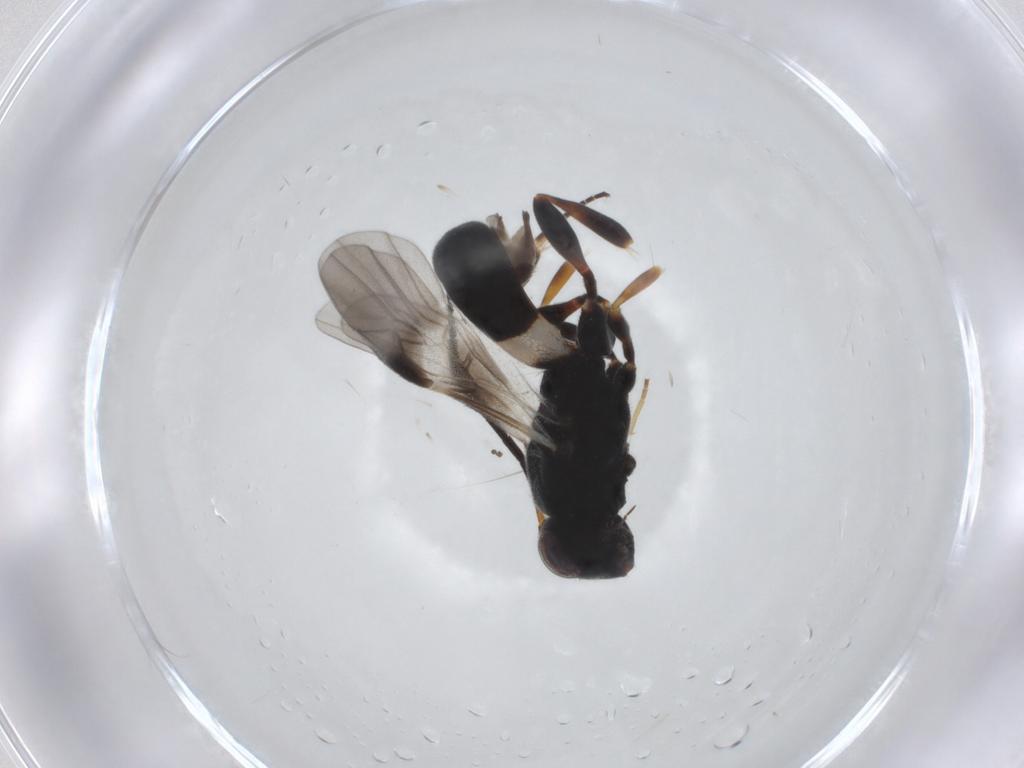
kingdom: Animalia
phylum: Arthropoda
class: Insecta
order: Hymenoptera
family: Braconidae
